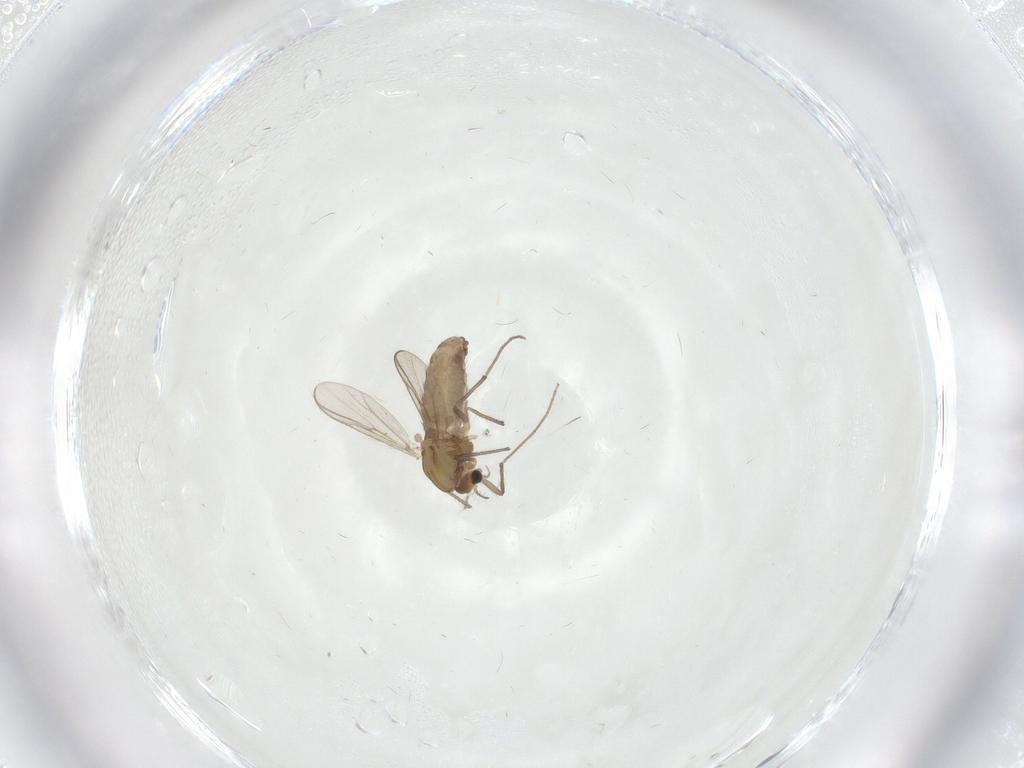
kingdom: Animalia
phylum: Arthropoda
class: Insecta
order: Diptera
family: Chironomidae
